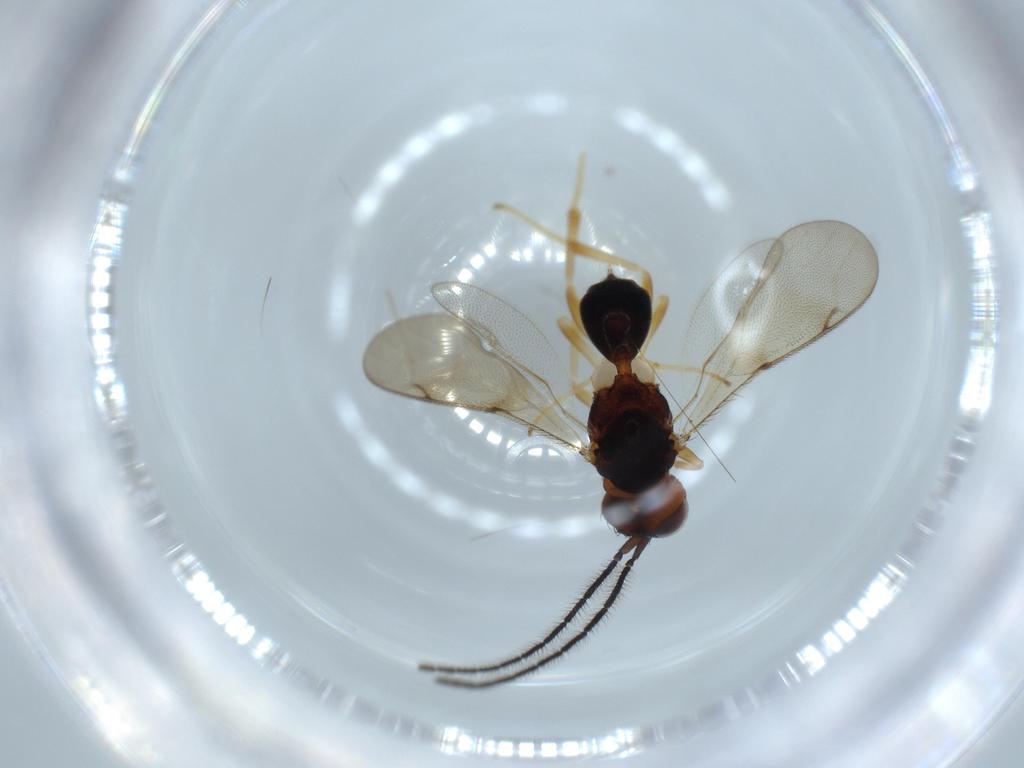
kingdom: Animalia
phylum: Arthropoda
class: Insecta
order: Hymenoptera
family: Diparidae
